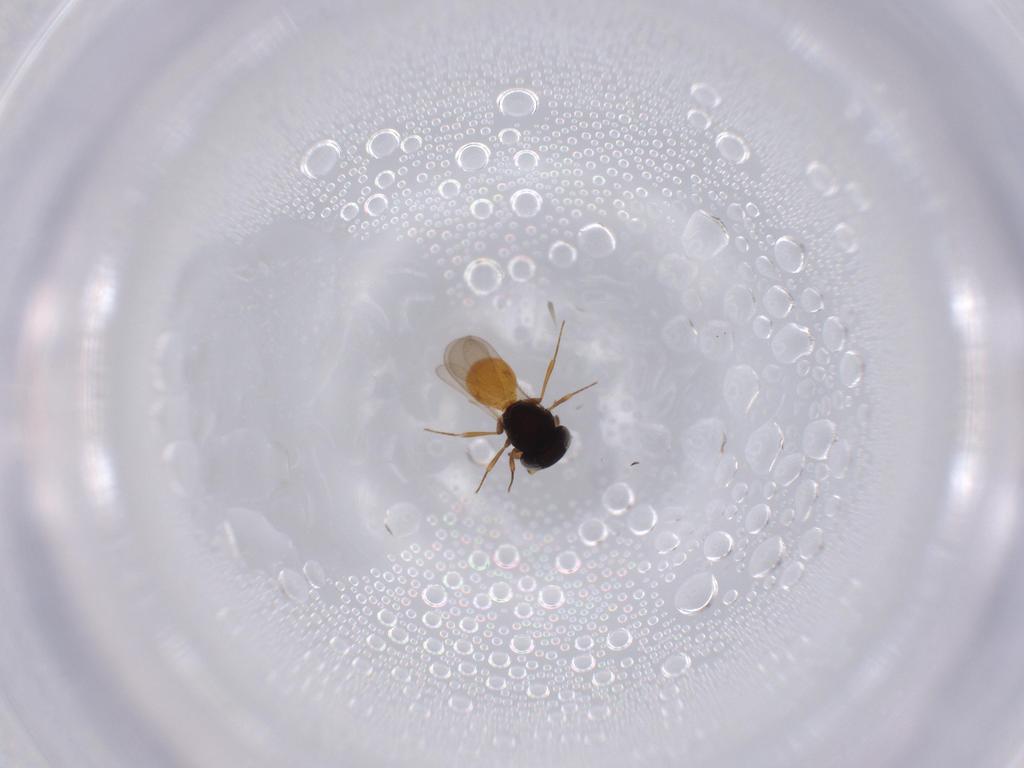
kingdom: Animalia
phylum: Arthropoda
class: Insecta
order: Hymenoptera
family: Scelionidae
